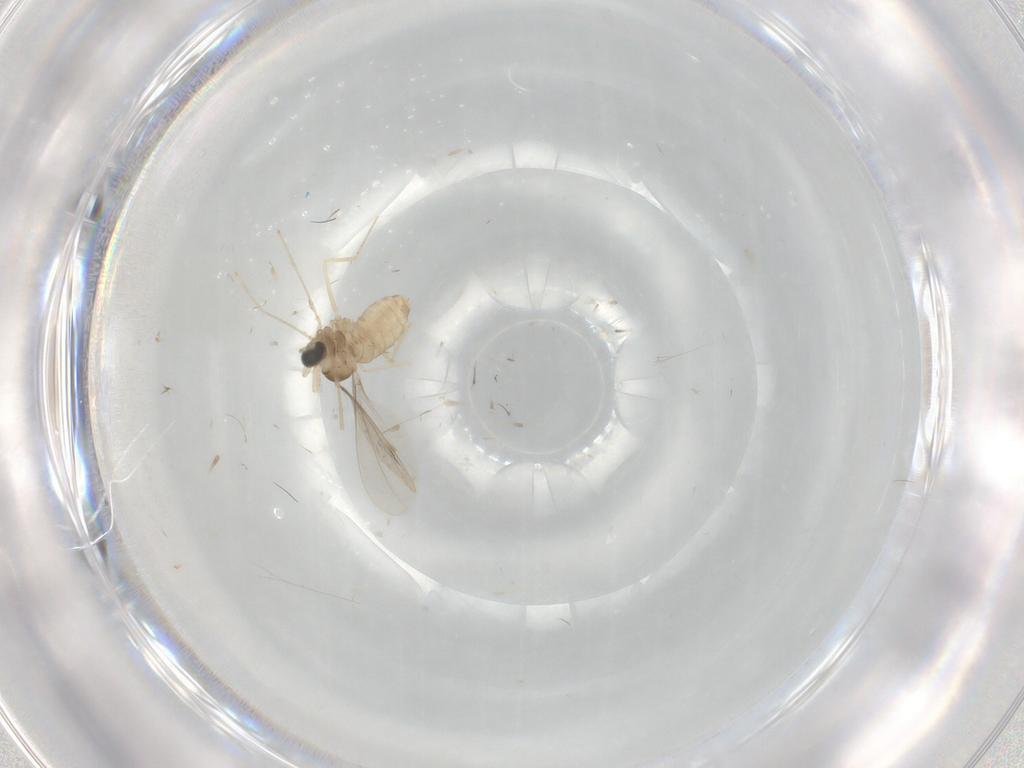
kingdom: Animalia
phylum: Arthropoda
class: Insecta
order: Diptera
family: Cecidomyiidae
